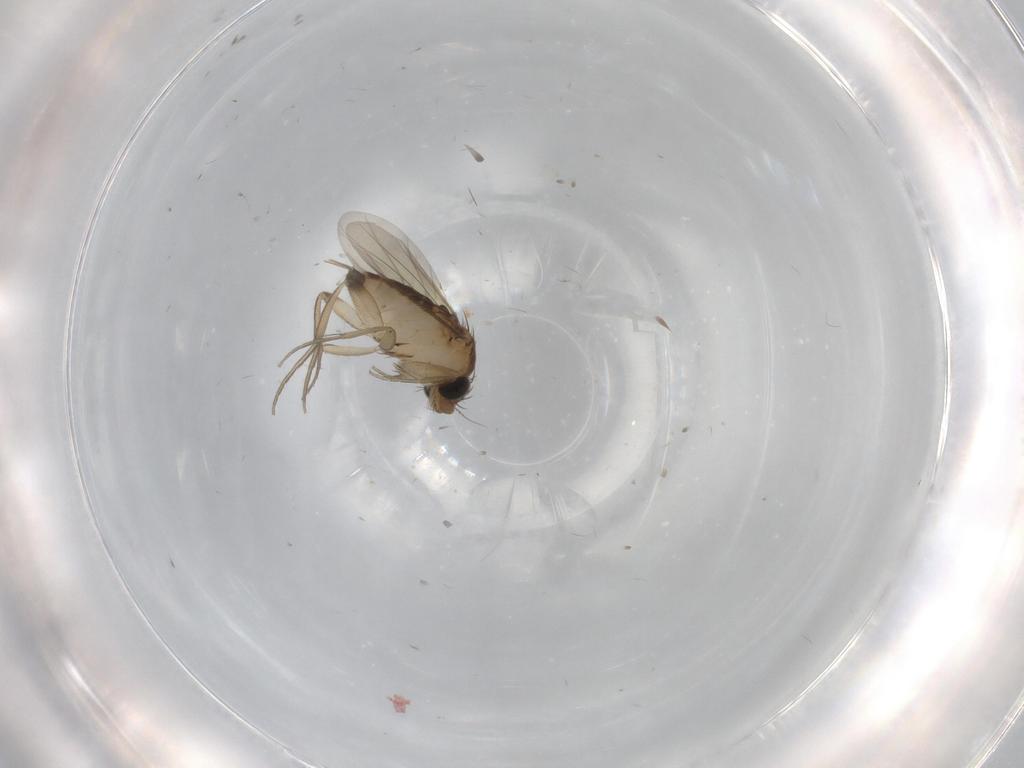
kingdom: Animalia
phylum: Arthropoda
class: Insecta
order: Diptera
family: Phoridae
